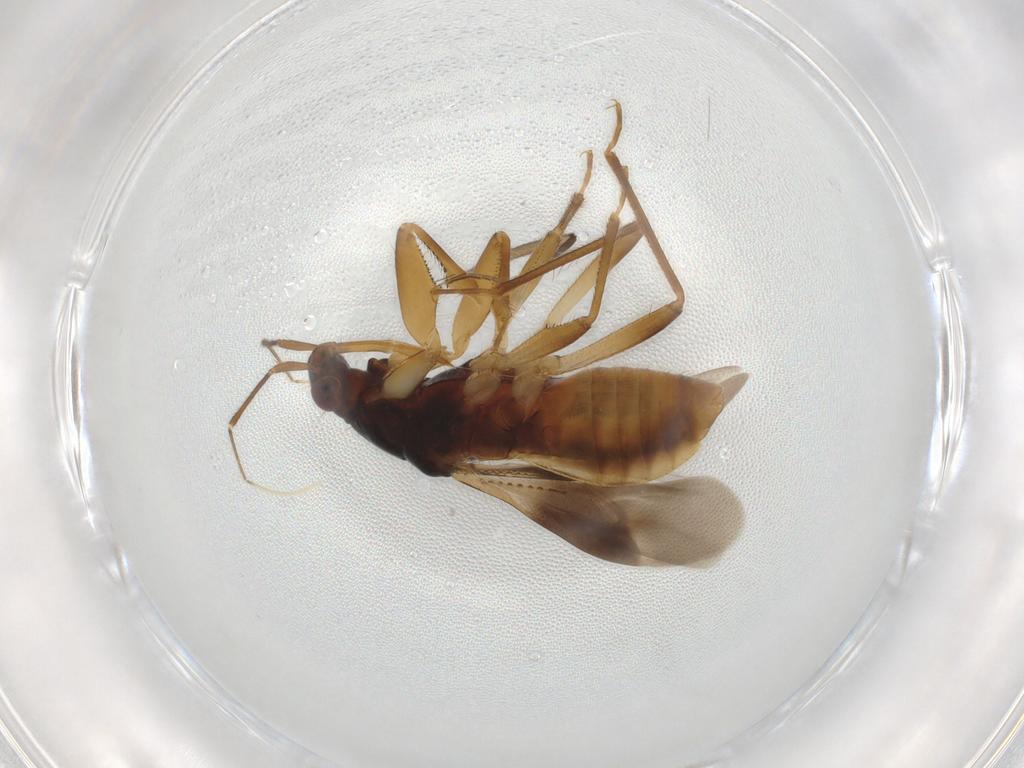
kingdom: Animalia
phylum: Arthropoda
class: Insecta
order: Hemiptera
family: Nabidae
